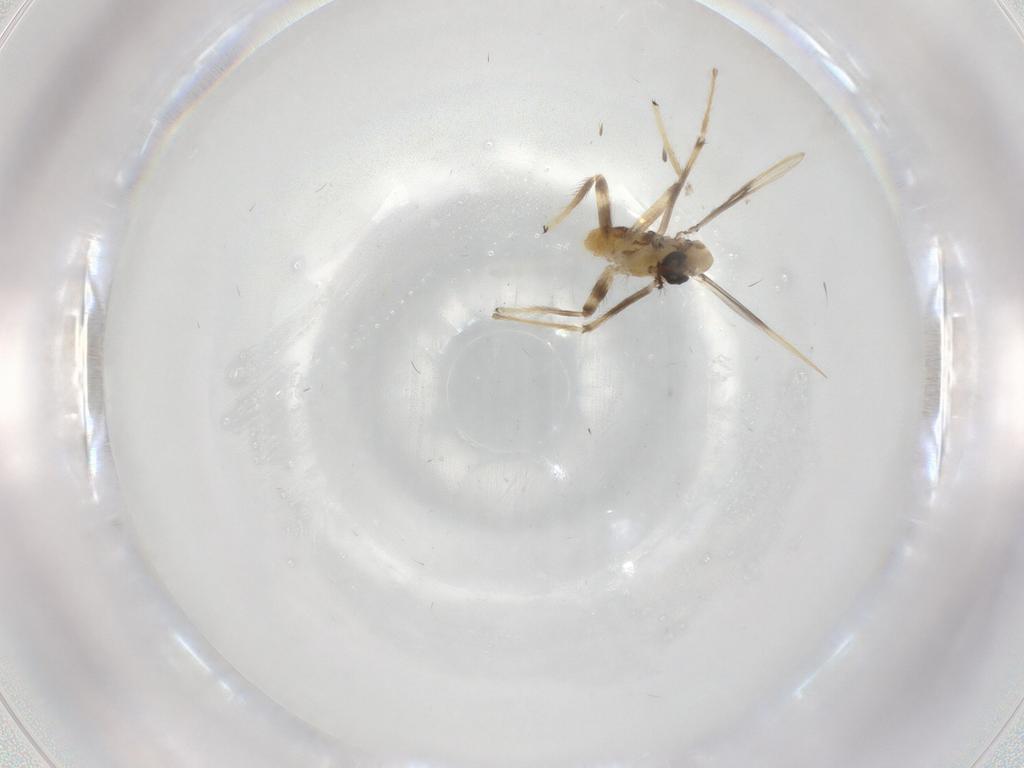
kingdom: Animalia
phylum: Arthropoda
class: Insecta
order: Diptera
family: Chironomidae
